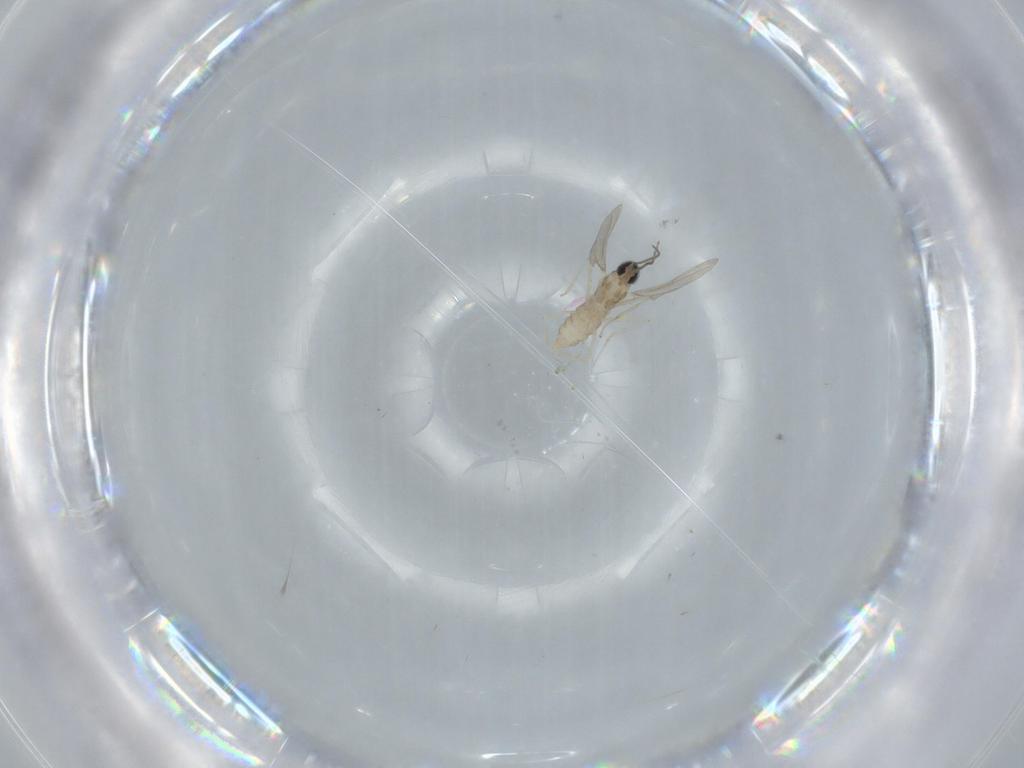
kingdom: Animalia
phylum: Arthropoda
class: Insecta
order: Diptera
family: Cecidomyiidae
